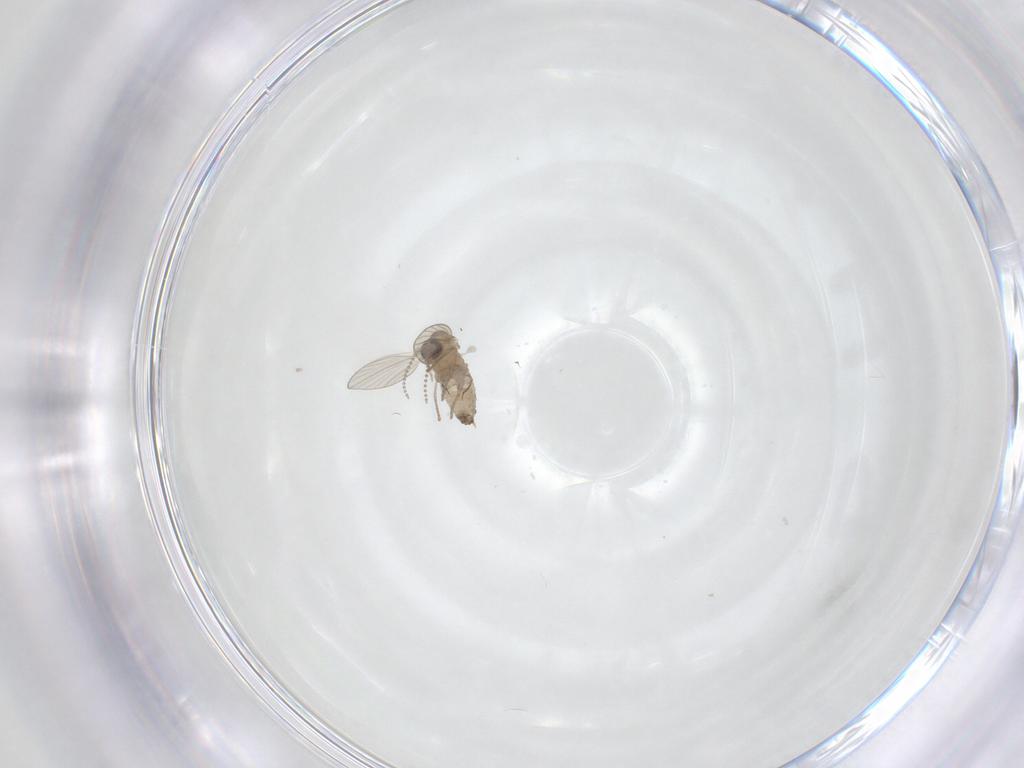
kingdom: Animalia
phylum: Arthropoda
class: Insecta
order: Diptera
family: Psychodidae
